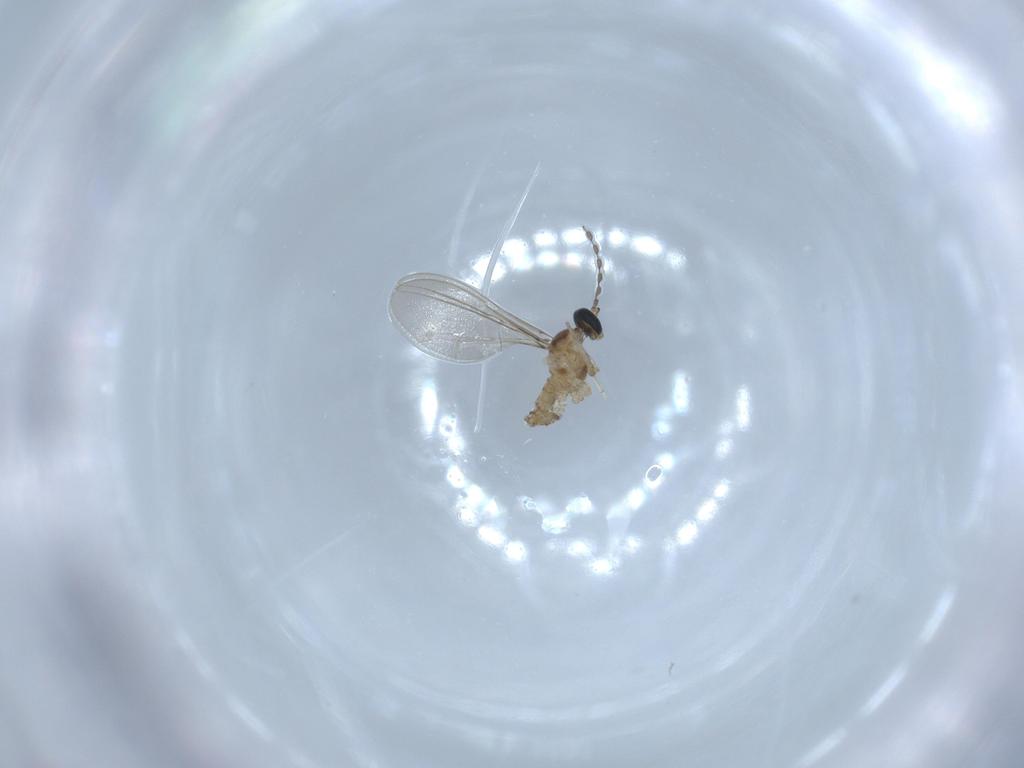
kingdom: Animalia
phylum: Arthropoda
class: Insecta
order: Diptera
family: Cecidomyiidae
